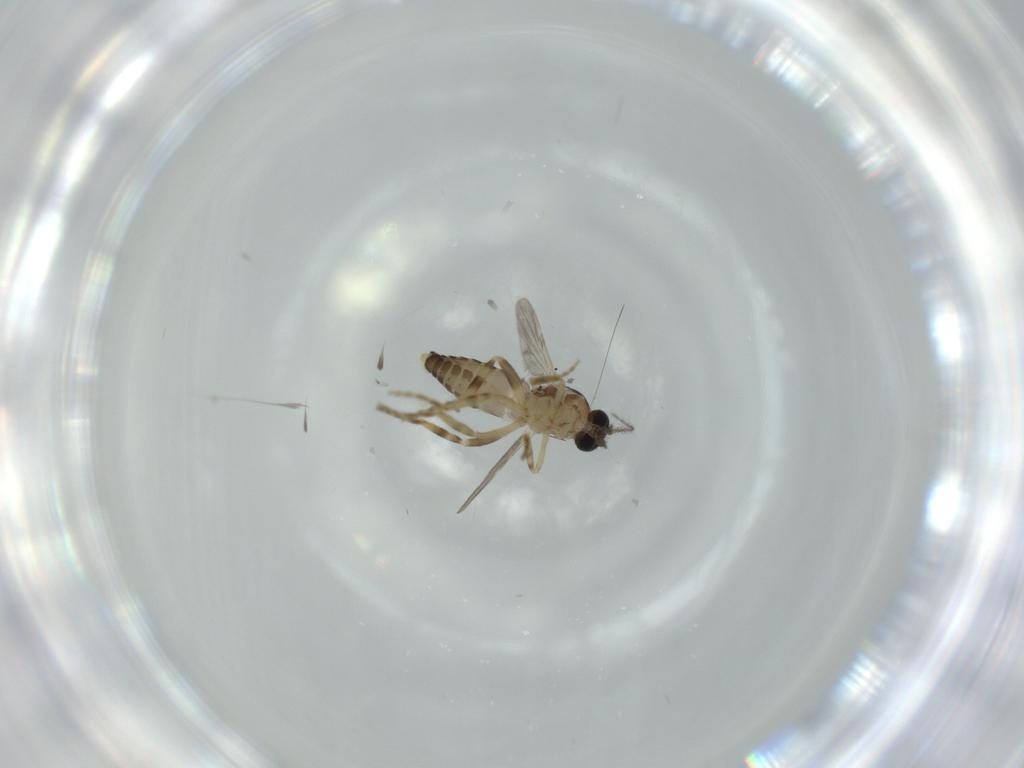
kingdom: Animalia
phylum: Arthropoda
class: Insecta
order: Diptera
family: Ceratopogonidae
